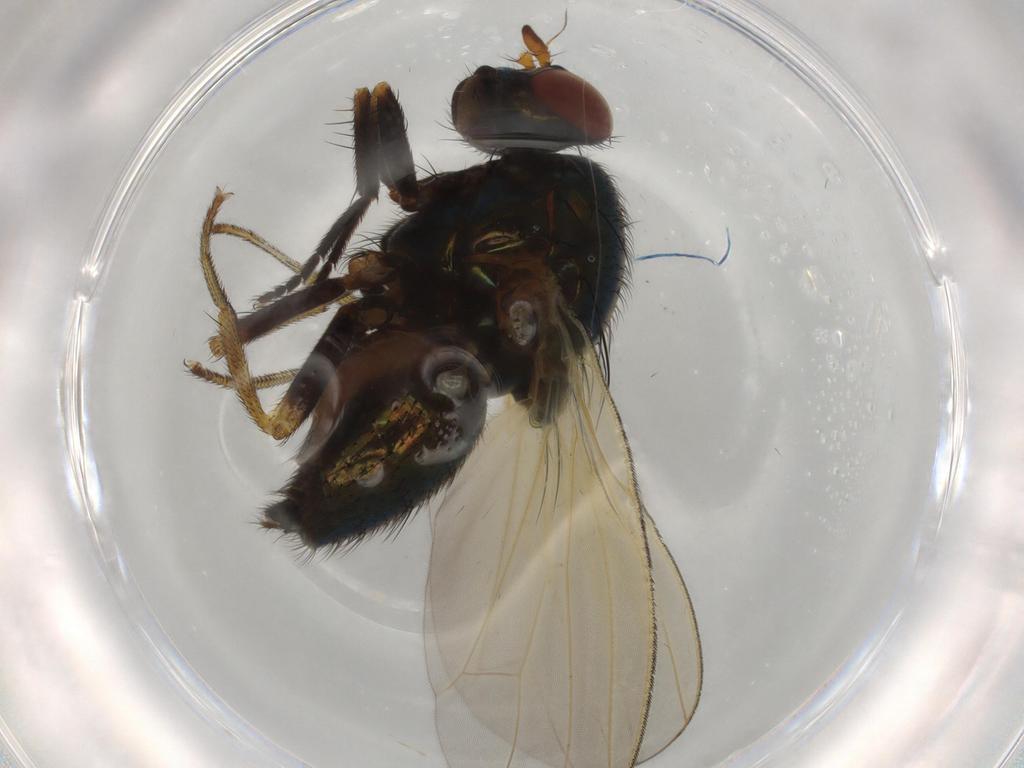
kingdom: Animalia
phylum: Arthropoda
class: Insecta
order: Diptera
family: Lauxaniidae
